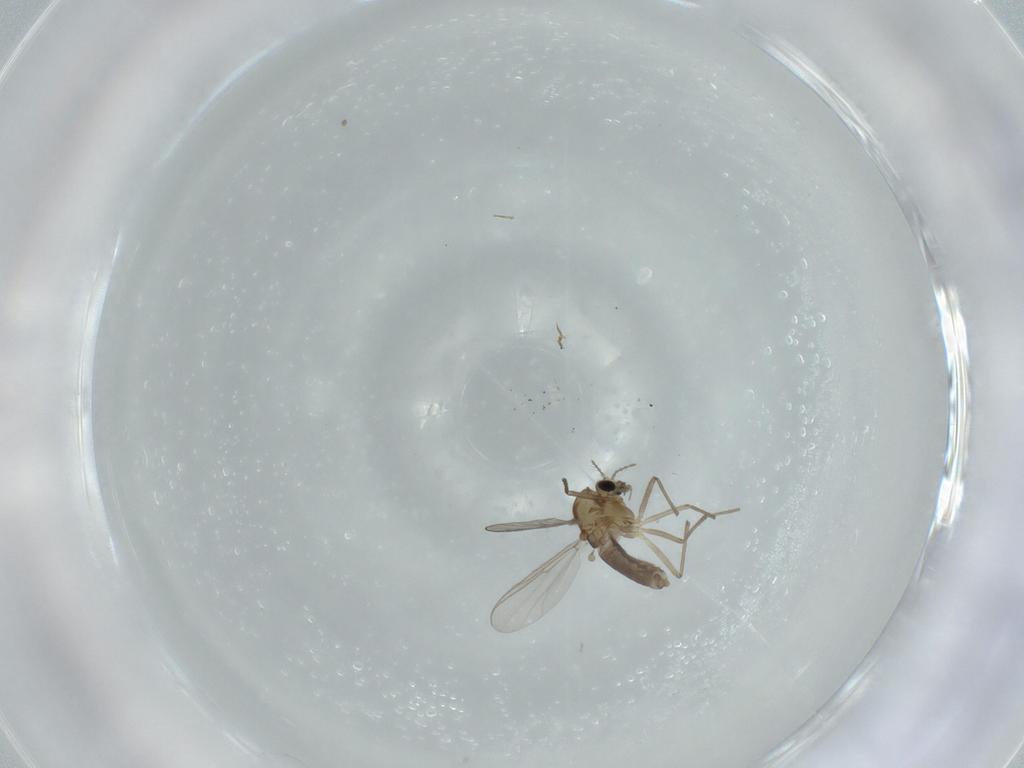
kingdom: Animalia
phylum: Arthropoda
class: Insecta
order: Diptera
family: Chironomidae
